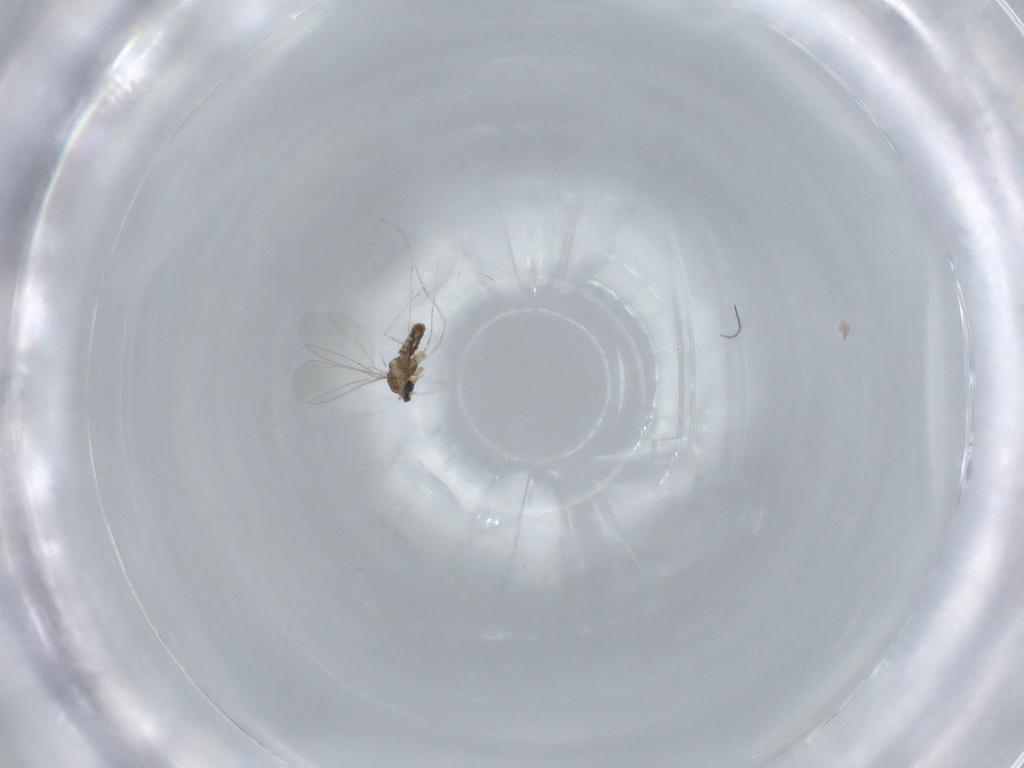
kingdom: Animalia
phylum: Arthropoda
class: Insecta
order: Diptera
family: Cecidomyiidae
